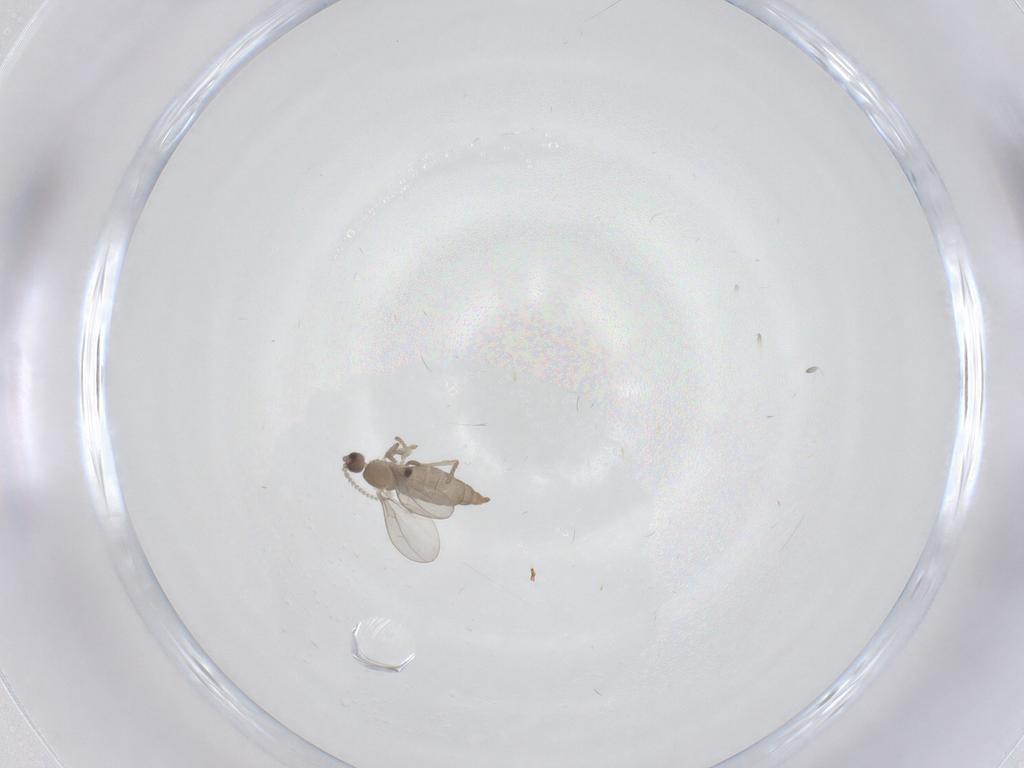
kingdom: Animalia
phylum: Arthropoda
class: Insecta
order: Diptera
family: Cecidomyiidae
